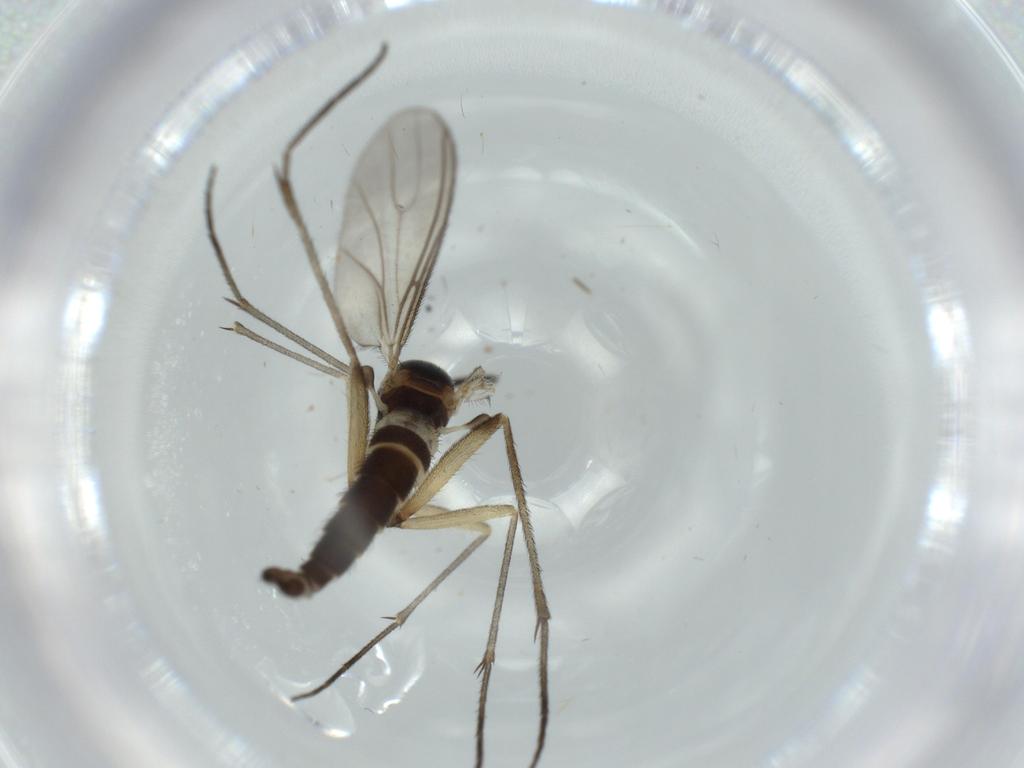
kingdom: Animalia
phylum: Arthropoda
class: Insecta
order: Diptera
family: Sciaridae
